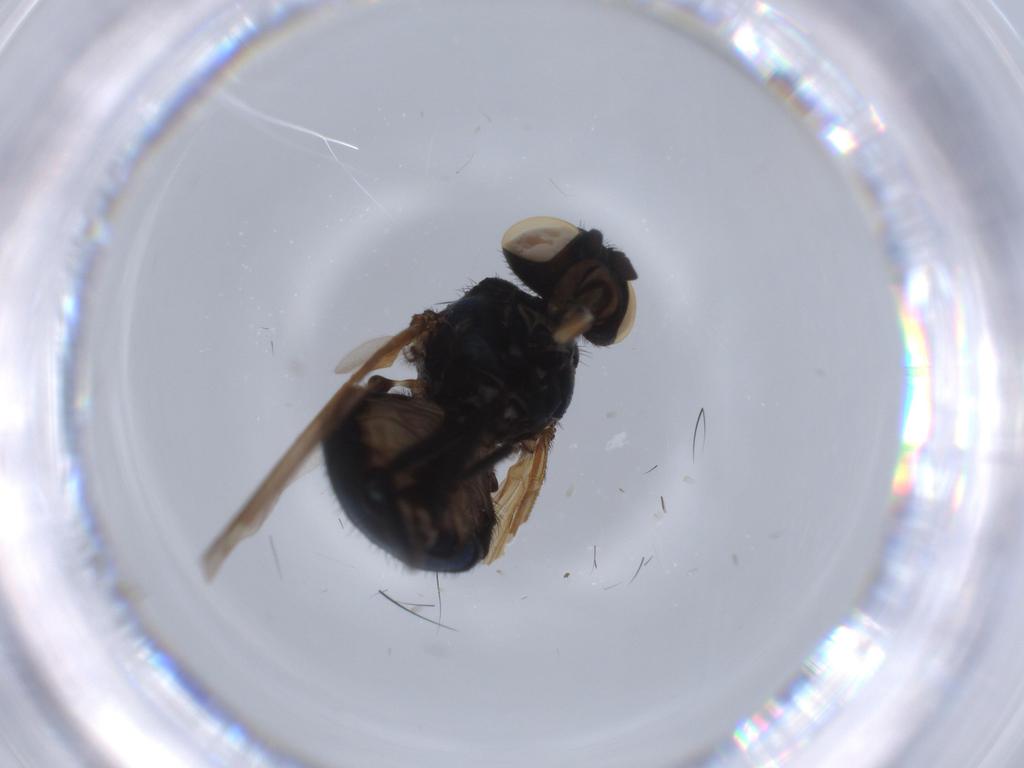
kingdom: Animalia
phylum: Arthropoda
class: Insecta
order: Diptera
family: Lonchaeidae
